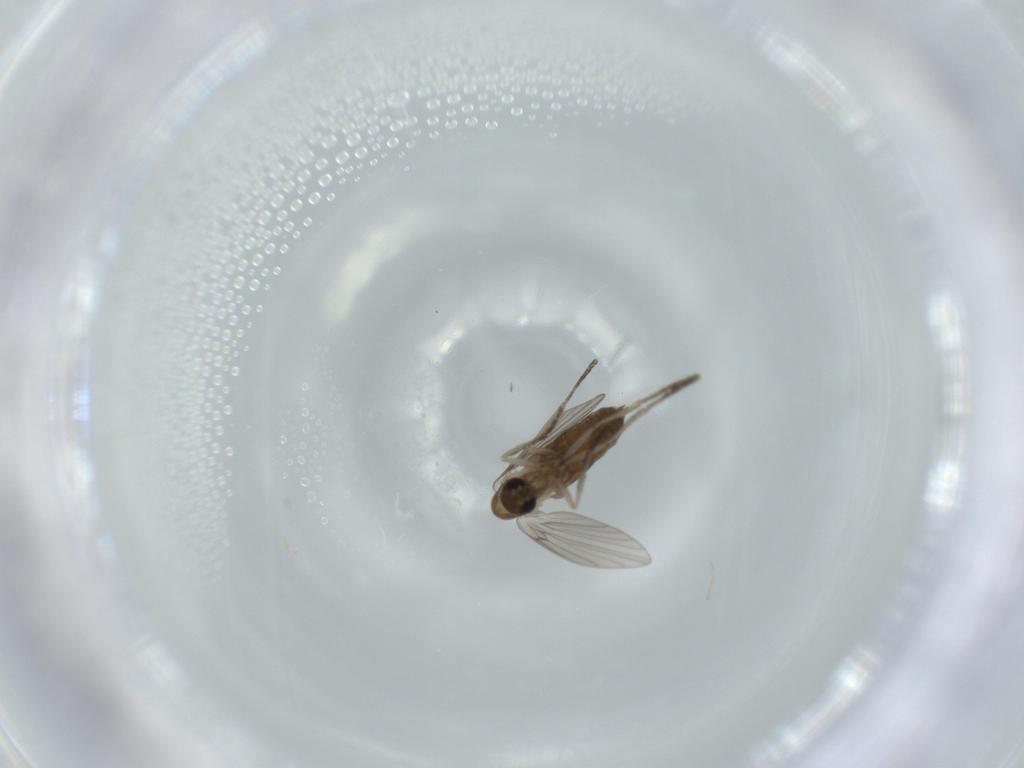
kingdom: Animalia
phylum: Arthropoda
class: Insecta
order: Diptera
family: Psychodidae
